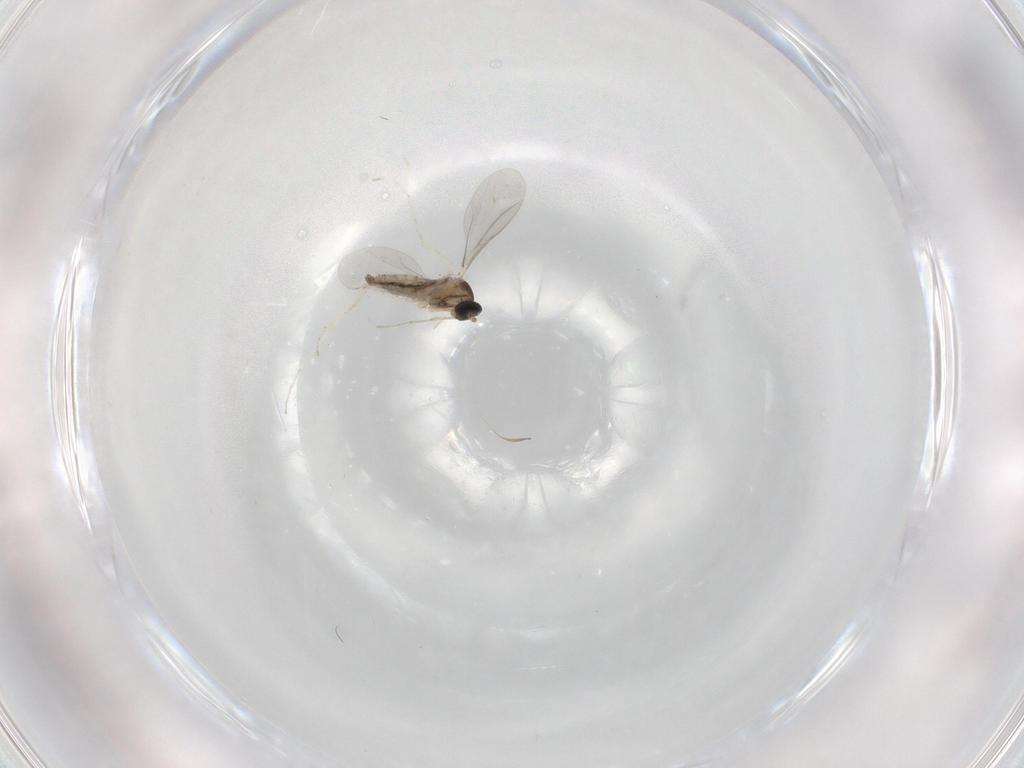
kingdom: Animalia
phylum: Arthropoda
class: Insecta
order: Diptera
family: Cecidomyiidae
